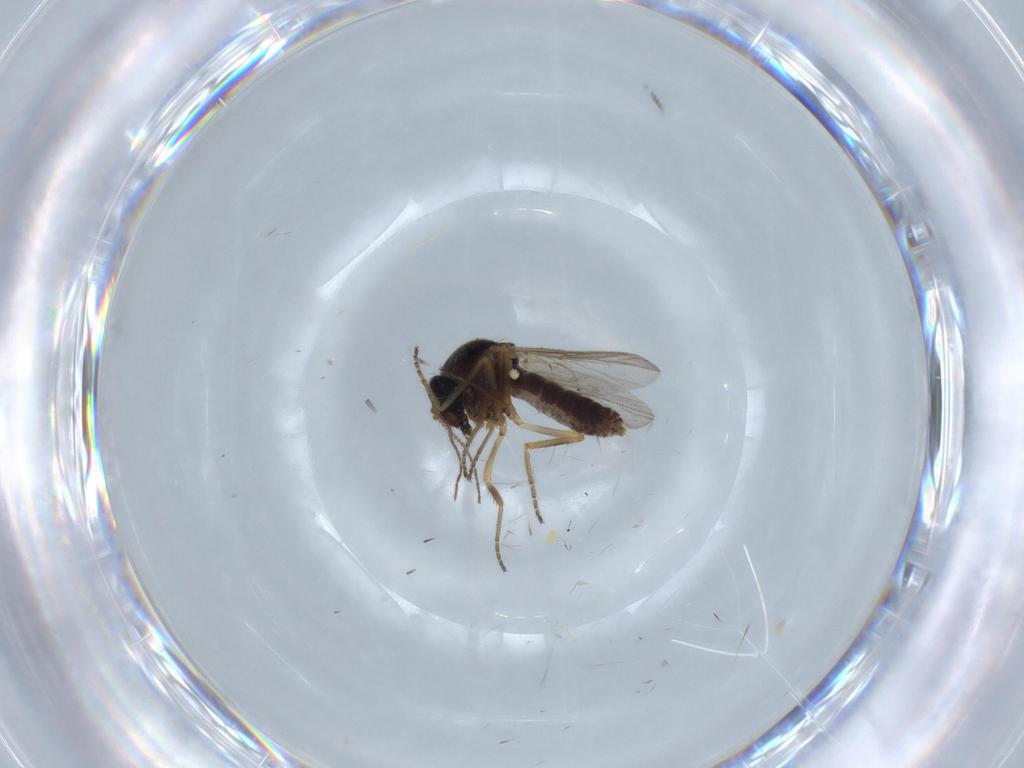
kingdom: Animalia
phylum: Arthropoda
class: Insecta
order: Diptera
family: Ceratopogonidae
